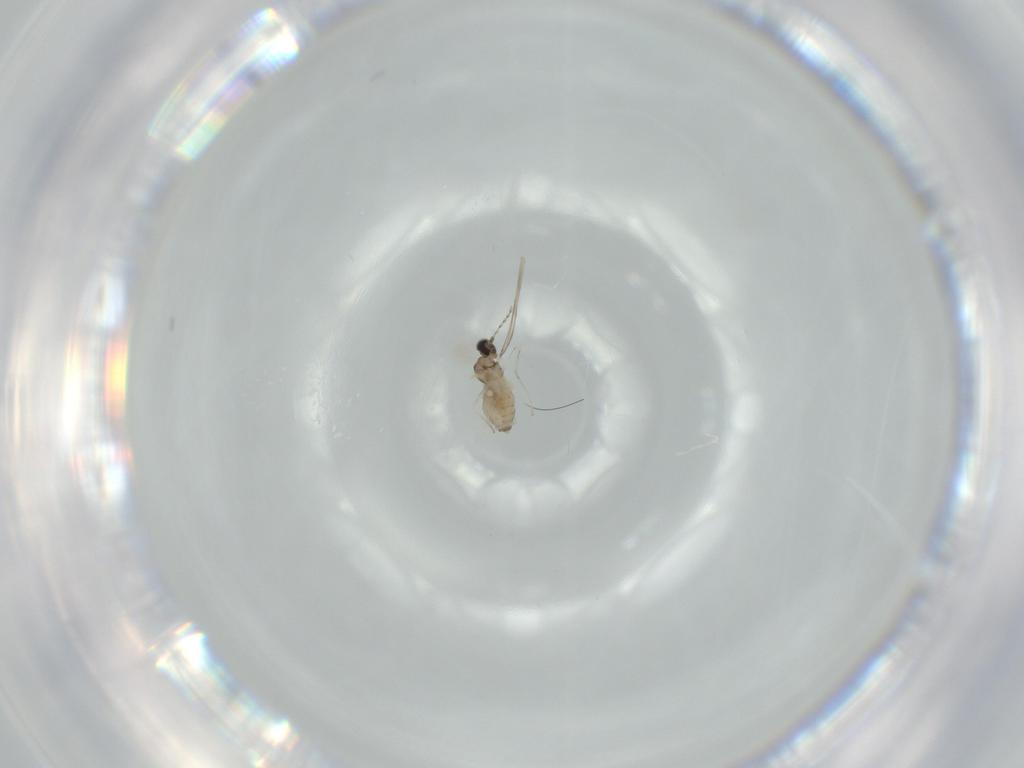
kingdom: Animalia
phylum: Arthropoda
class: Insecta
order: Diptera
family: Cecidomyiidae
